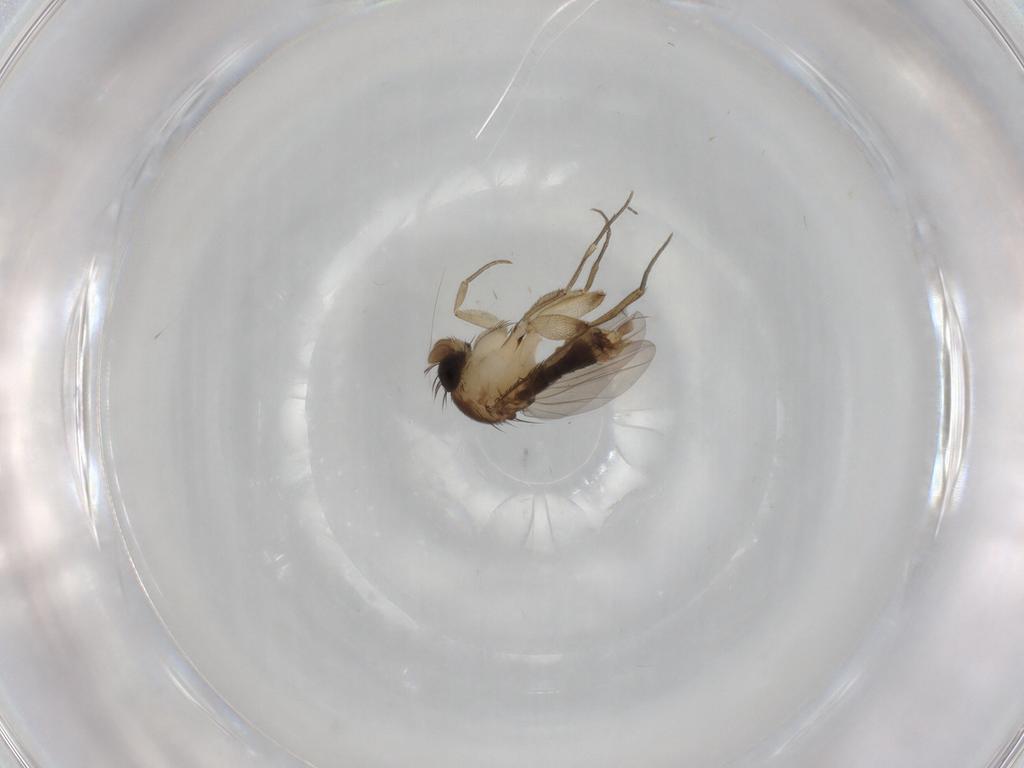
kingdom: Animalia
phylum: Arthropoda
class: Insecta
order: Diptera
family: Phoridae
